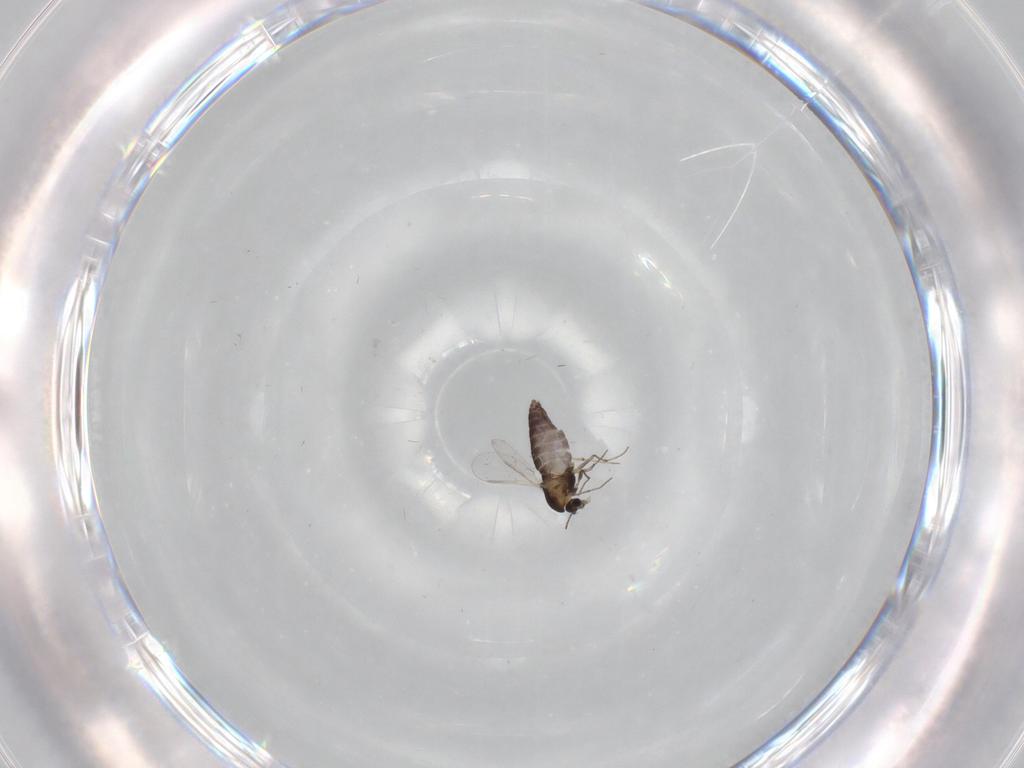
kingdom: Animalia
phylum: Arthropoda
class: Insecta
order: Diptera
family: Chironomidae
